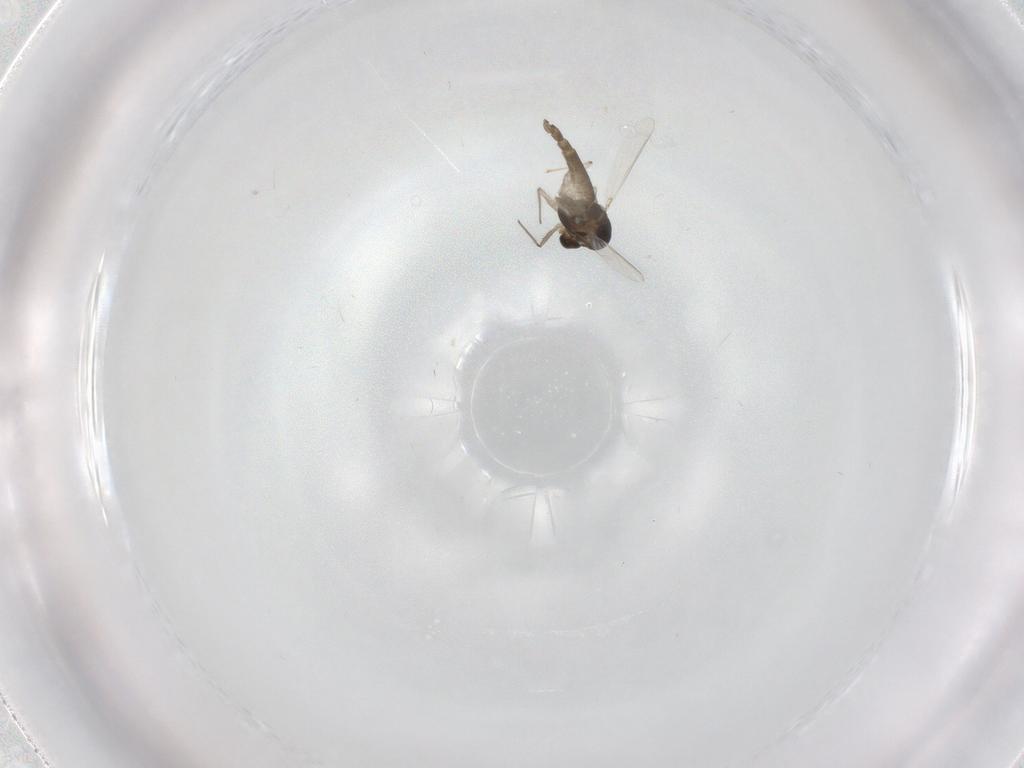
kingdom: Animalia
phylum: Arthropoda
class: Insecta
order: Diptera
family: Chironomidae
